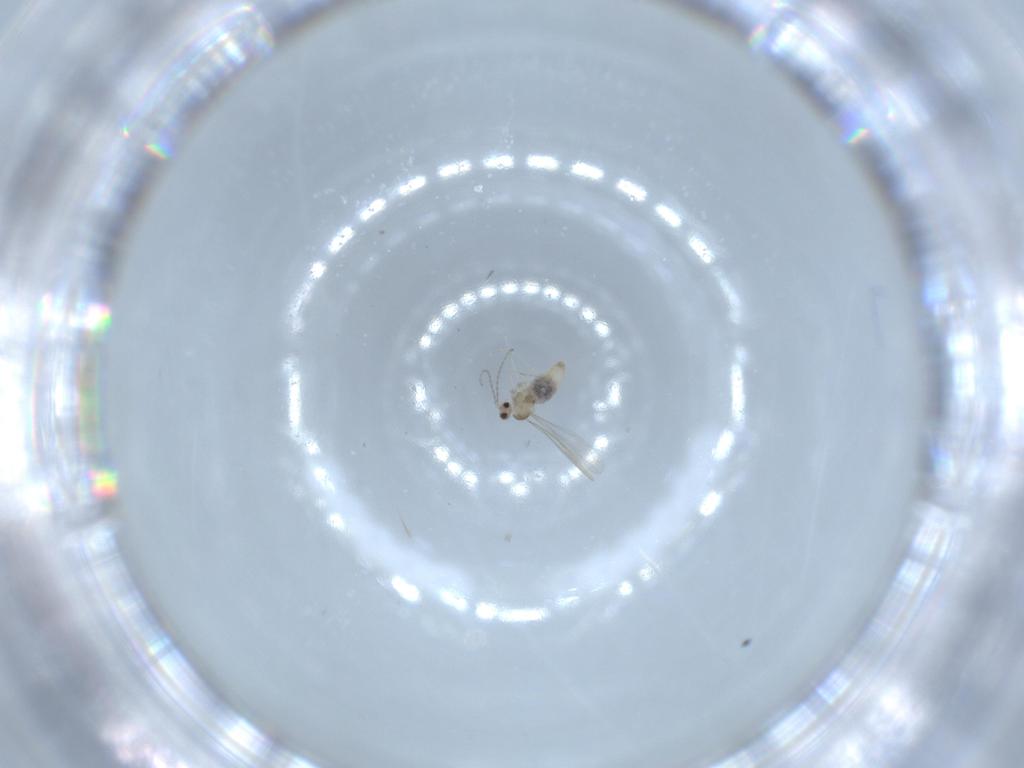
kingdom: Animalia
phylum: Arthropoda
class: Insecta
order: Diptera
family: Cecidomyiidae
